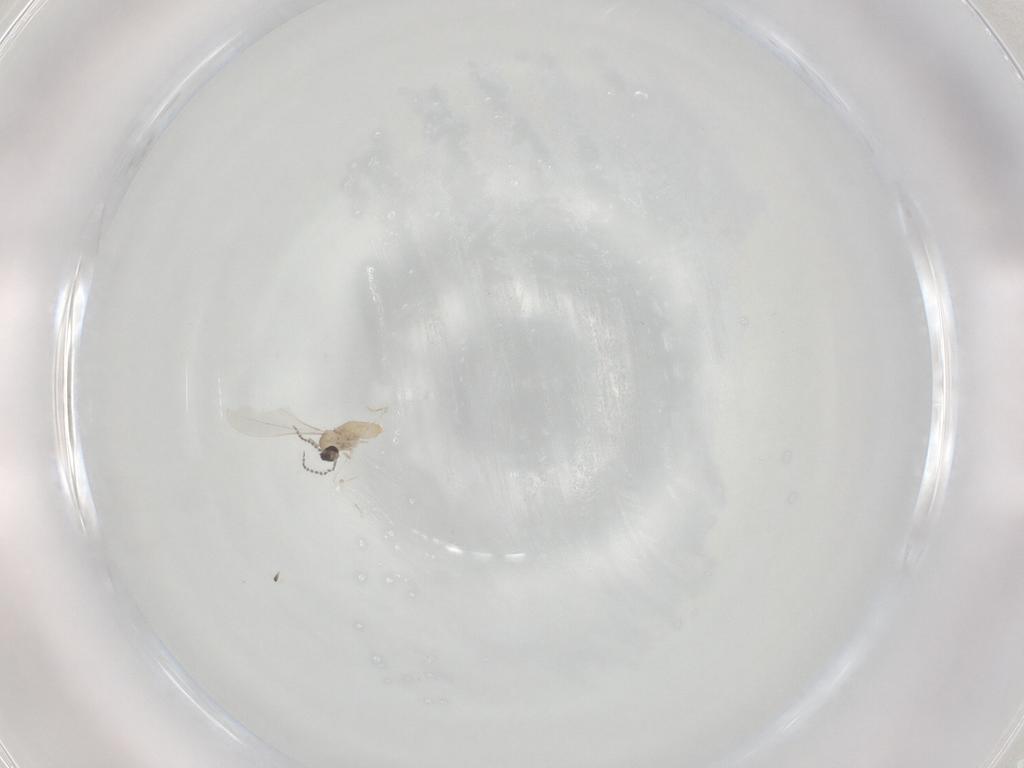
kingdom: Animalia
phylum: Arthropoda
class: Insecta
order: Diptera
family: Cecidomyiidae
